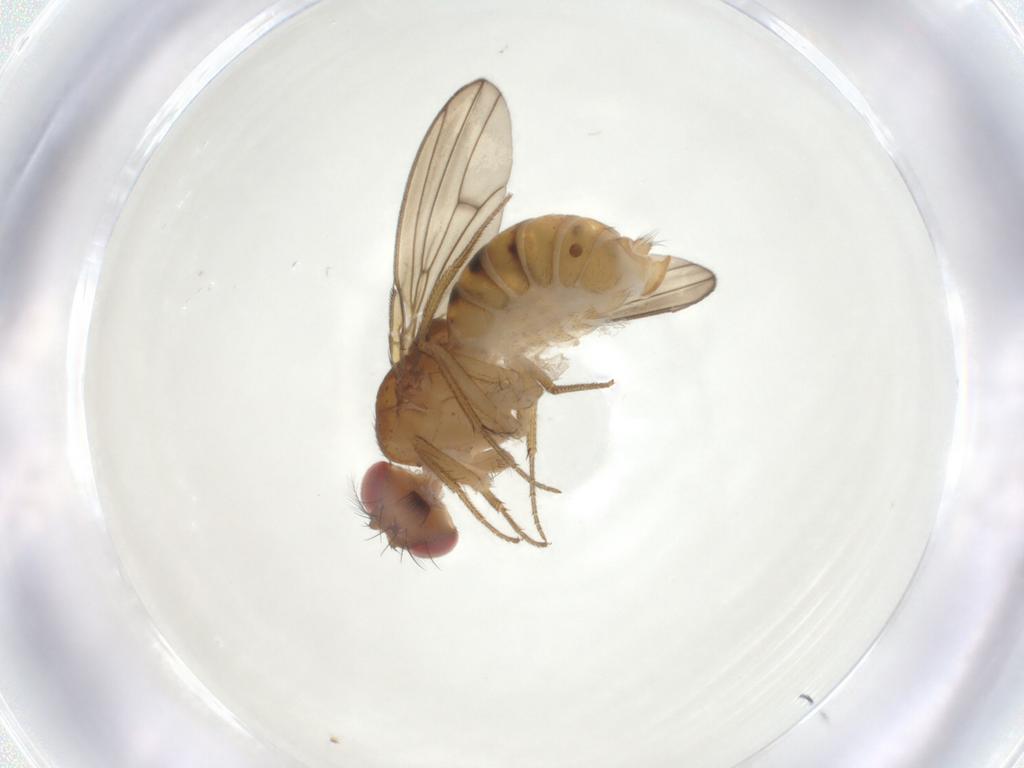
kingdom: Animalia
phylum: Arthropoda
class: Insecta
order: Diptera
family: Drosophilidae
